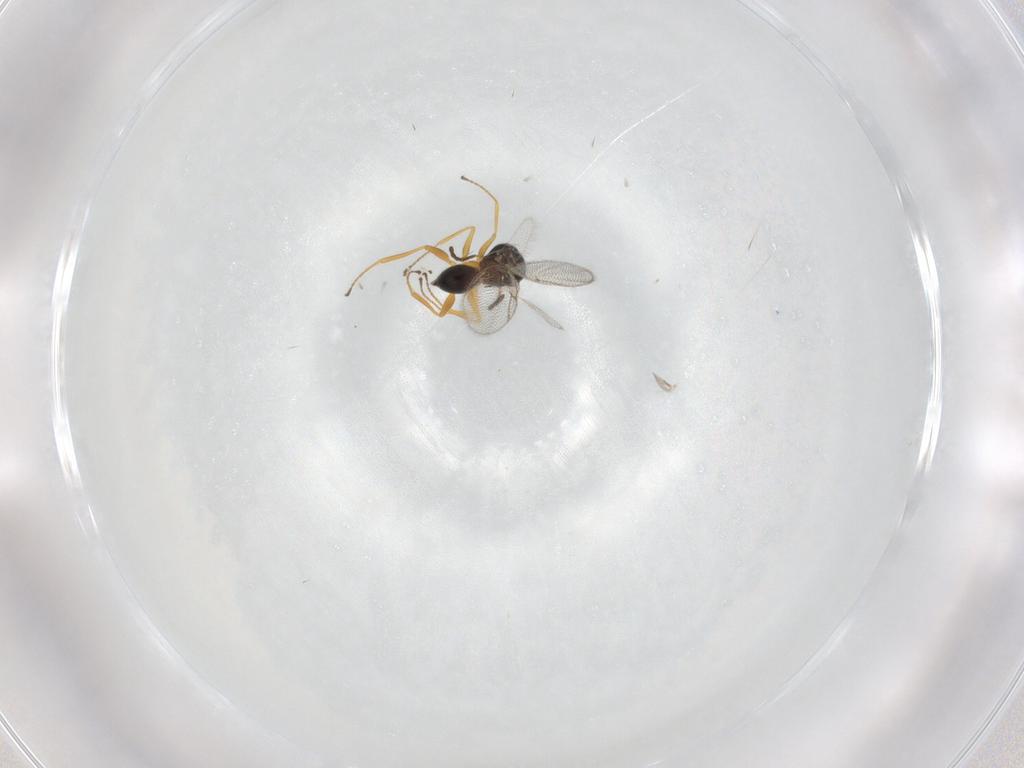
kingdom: Animalia
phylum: Arthropoda
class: Insecta
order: Hymenoptera
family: Figitidae
